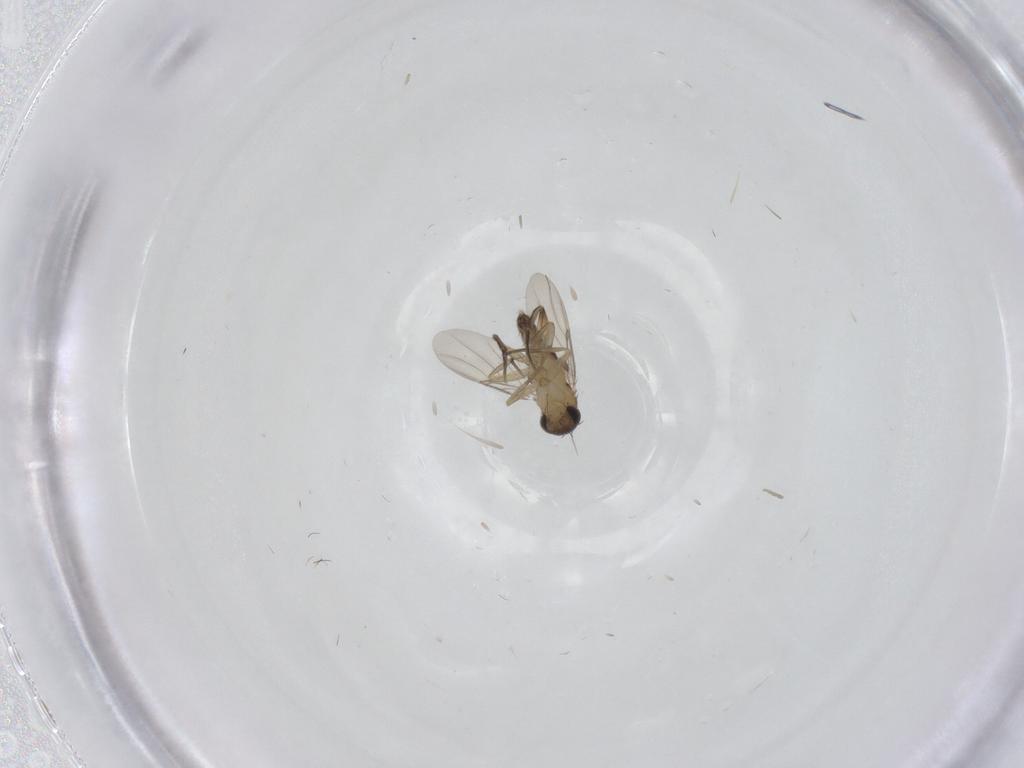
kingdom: Animalia
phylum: Arthropoda
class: Insecta
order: Diptera
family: Phoridae
